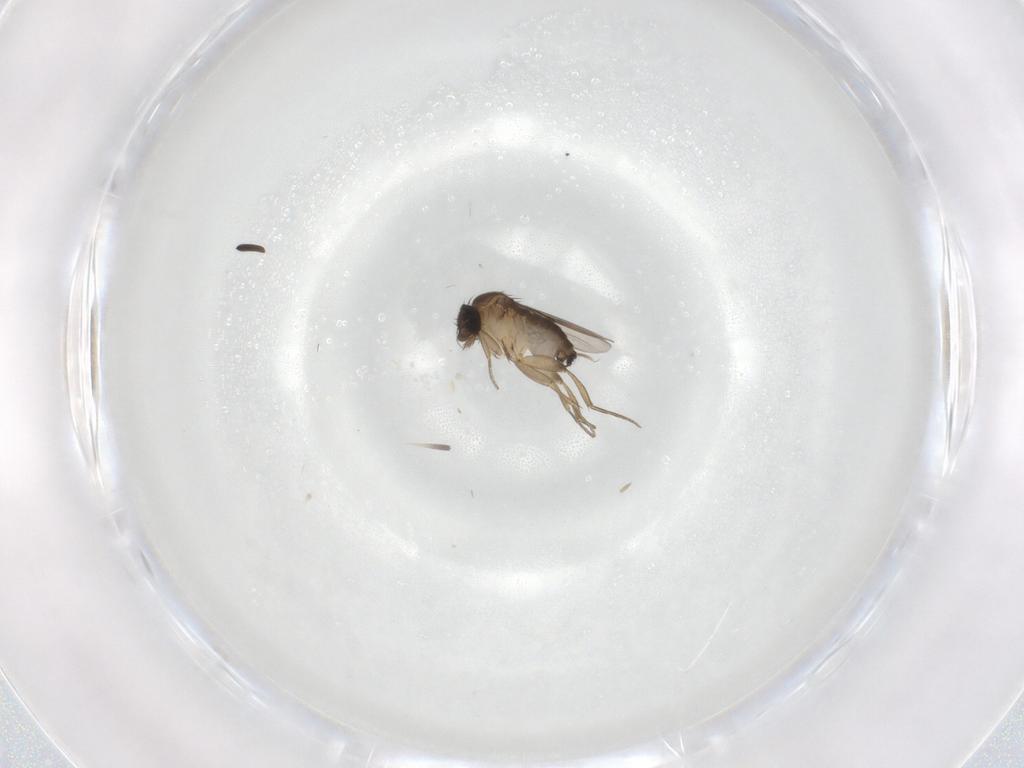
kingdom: Animalia
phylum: Arthropoda
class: Insecta
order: Diptera
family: Phoridae
